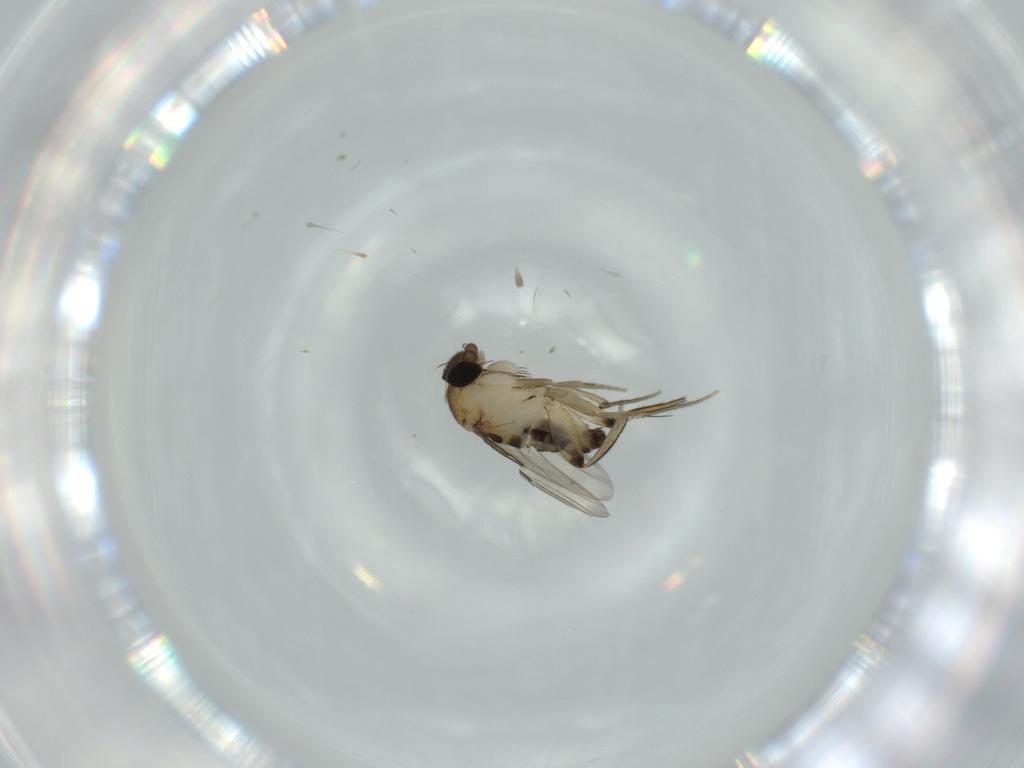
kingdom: Animalia
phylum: Arthropoda
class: Insecta
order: Diptera
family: Phoridae
